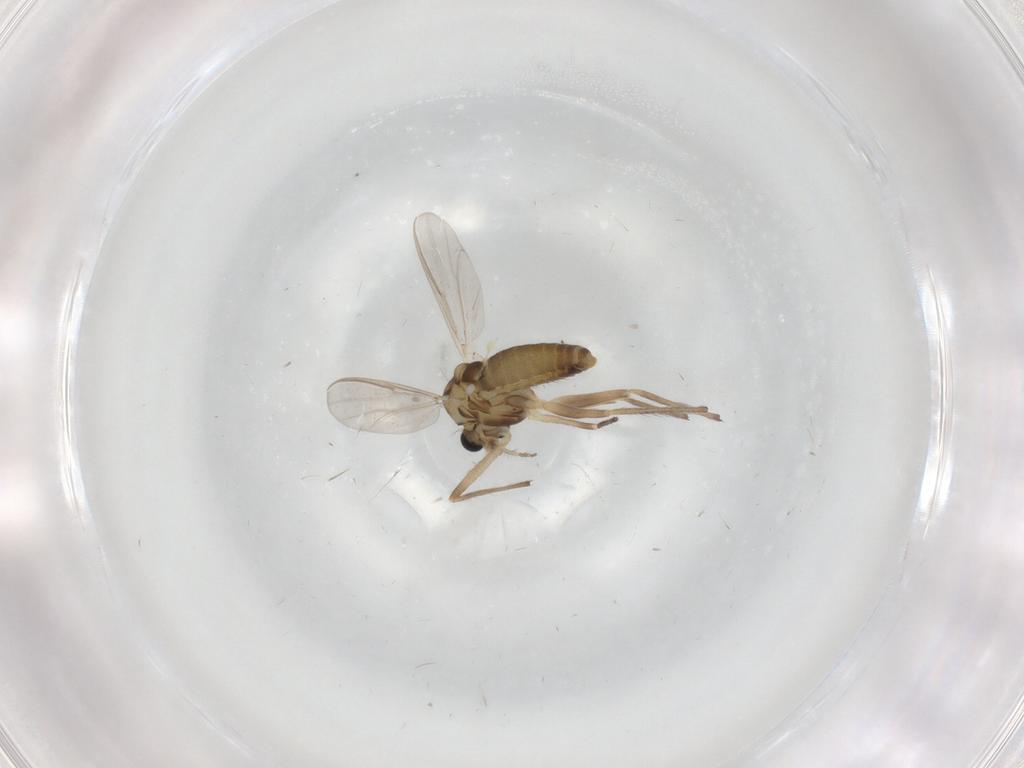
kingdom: Animalia
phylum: Arthropoda
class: Insecta
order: Diptera
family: Chironomidae
